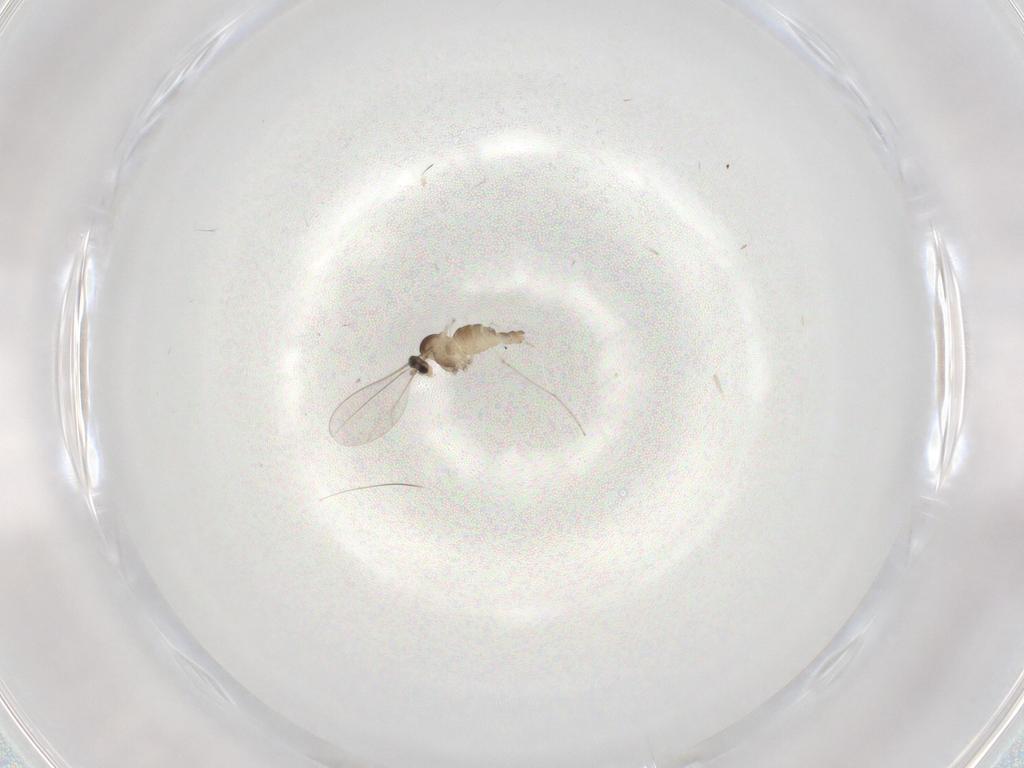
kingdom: Animalia
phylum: Arthropoda
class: Insecta
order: Diptera
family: Cecidomyiidae
